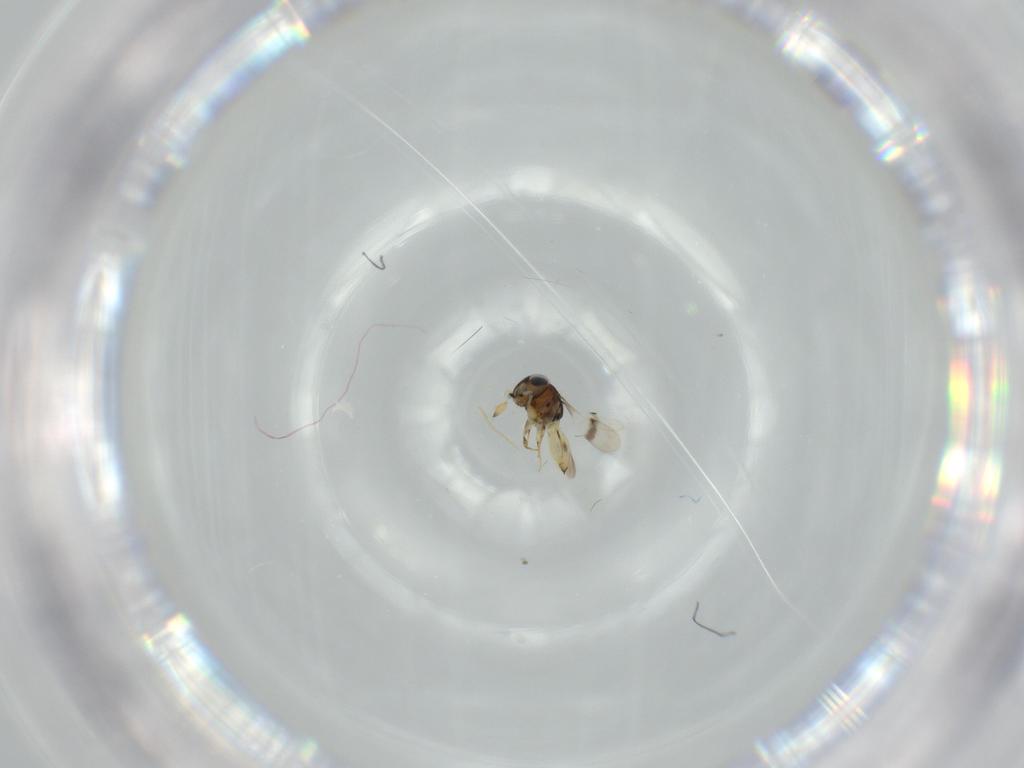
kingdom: Animalia
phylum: Arthropoda
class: Insecta
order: Hymenoptera
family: Scelionidae
